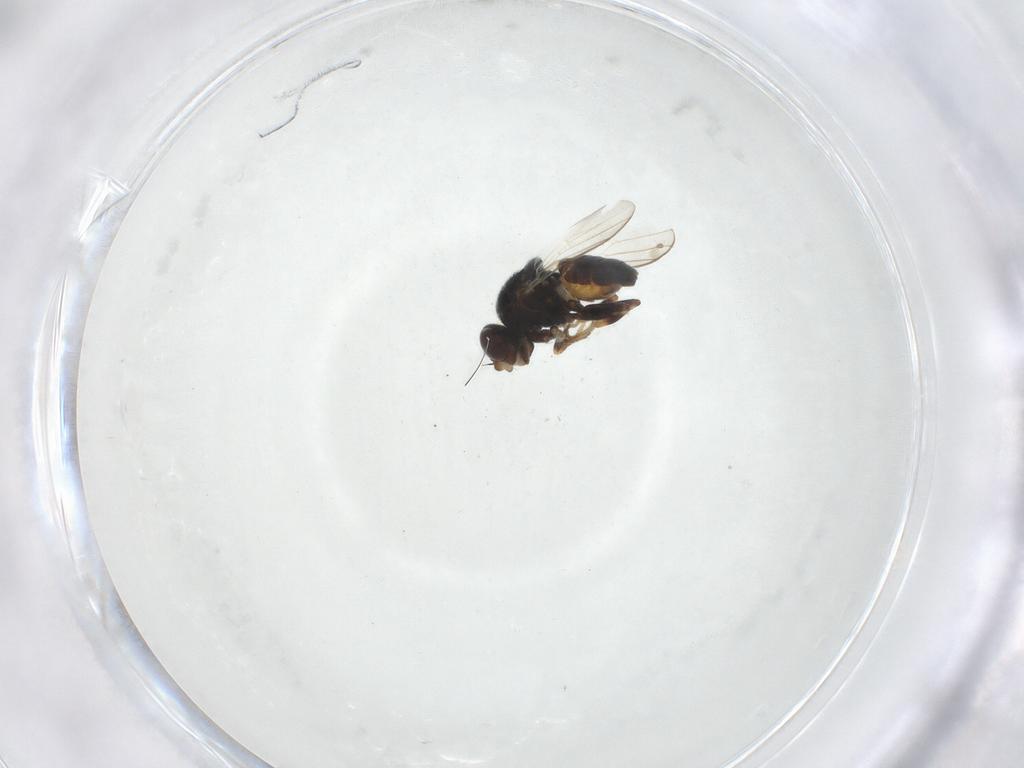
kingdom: Animalia
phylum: Arthropoda
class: Insecta
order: Diptera
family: Chloropidae
